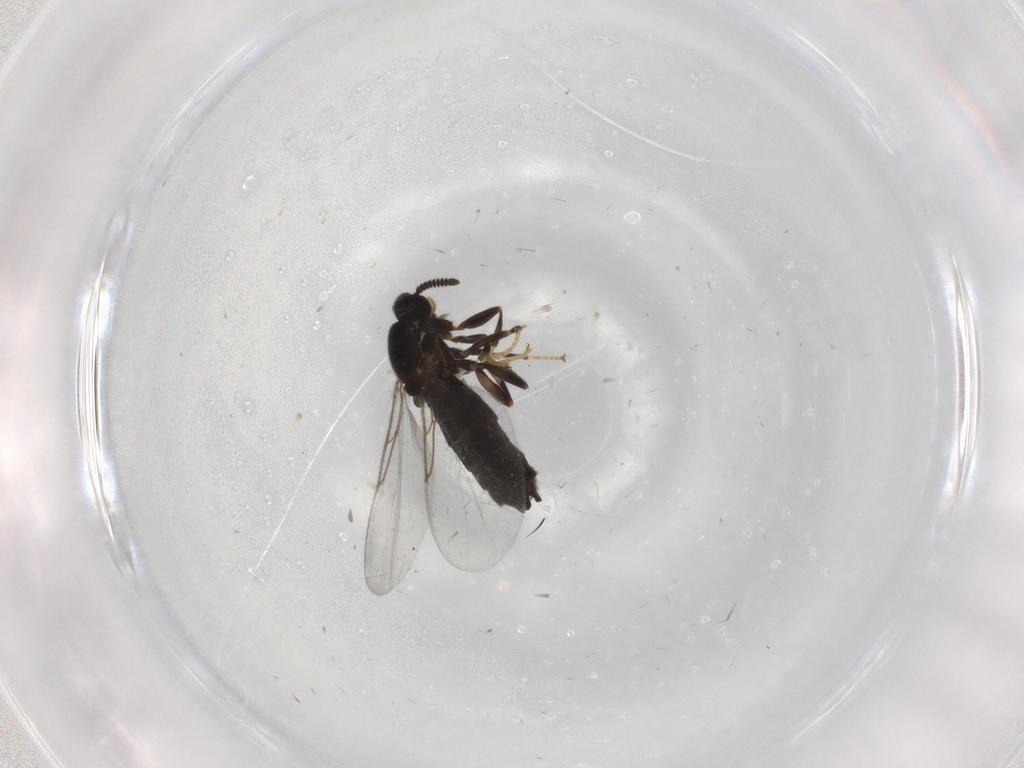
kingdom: Animalia
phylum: Arthropoda
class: Insecta
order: Diptera
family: Scatopsidae
